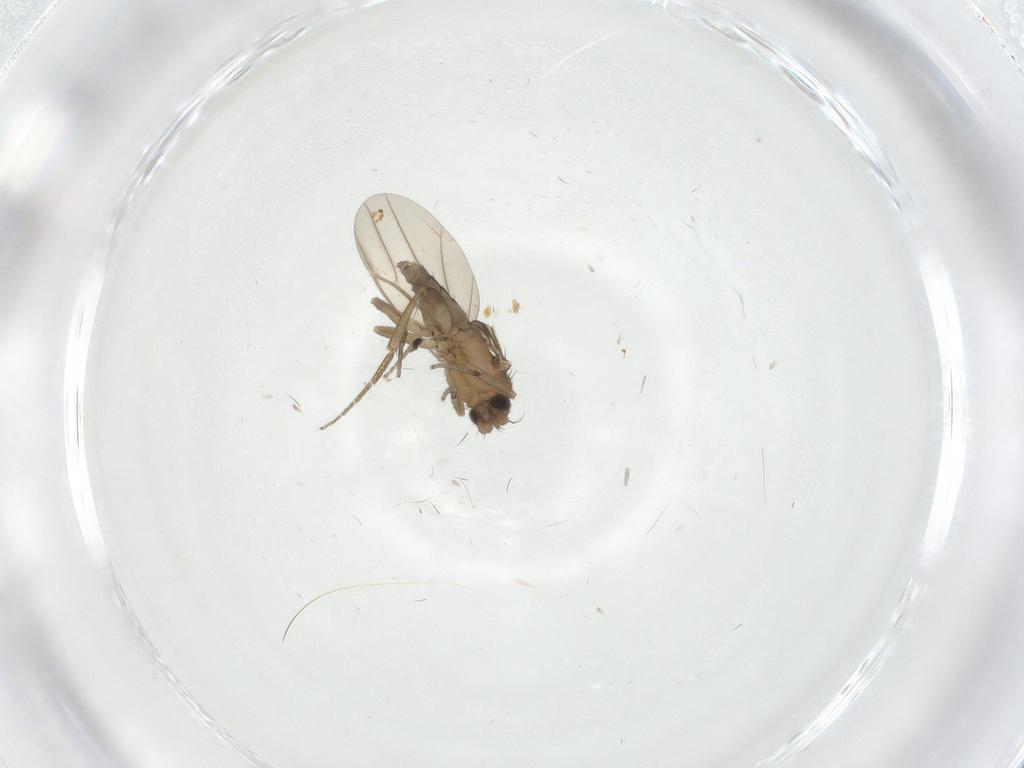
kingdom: Animalia
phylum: Arthropoda
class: Insecta
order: Diptera
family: Phoridae
